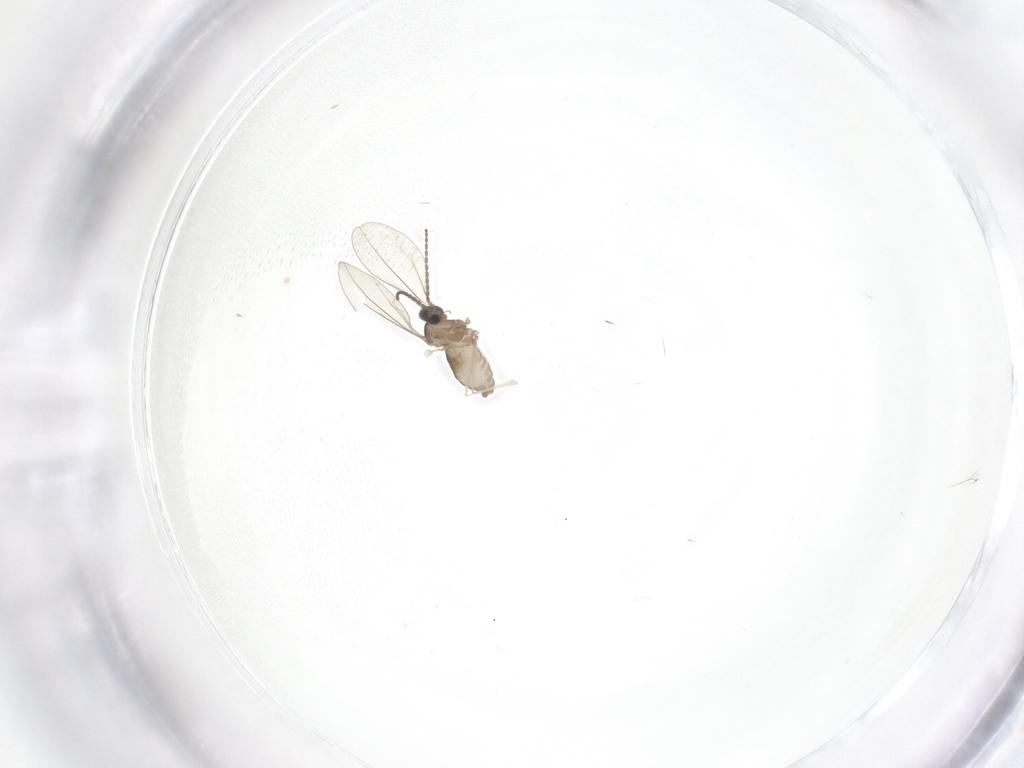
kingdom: Animalia
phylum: Arthropoda
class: Insecta
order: Diptera
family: Cecidomyiidae
